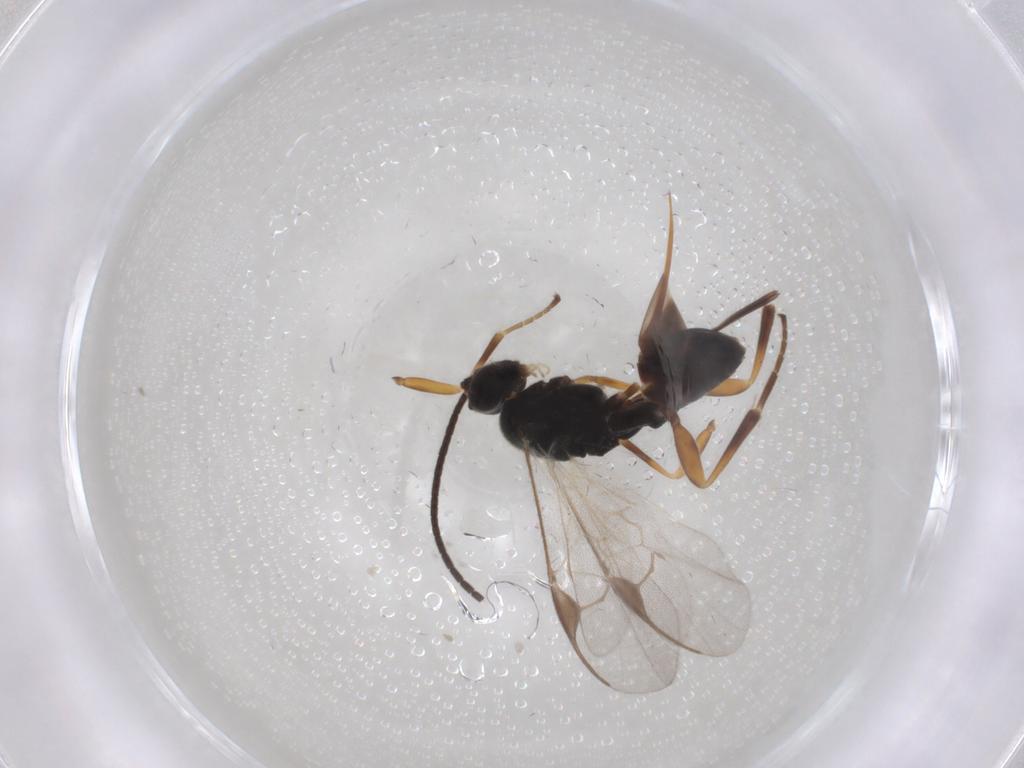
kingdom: Animalia
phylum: Arthropoda
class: Insecta
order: Hymenoptera
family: Braconidae
